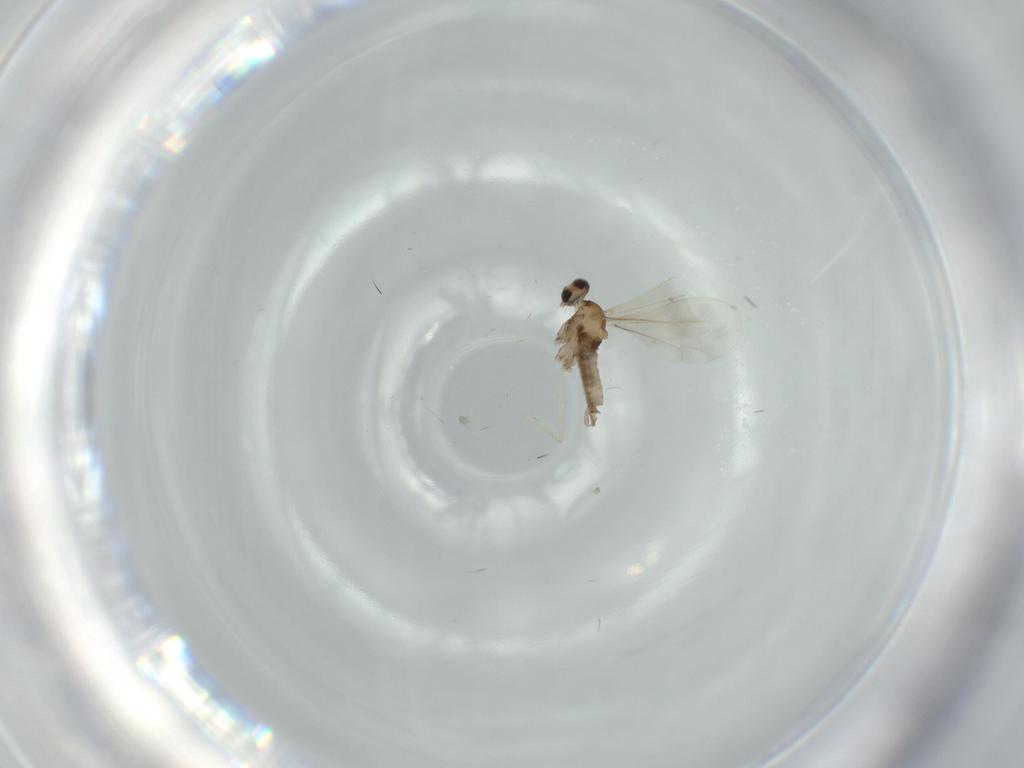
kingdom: Animalia
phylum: Arthropoda
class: Insecta
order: Diptera
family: Cecidomyiidae
